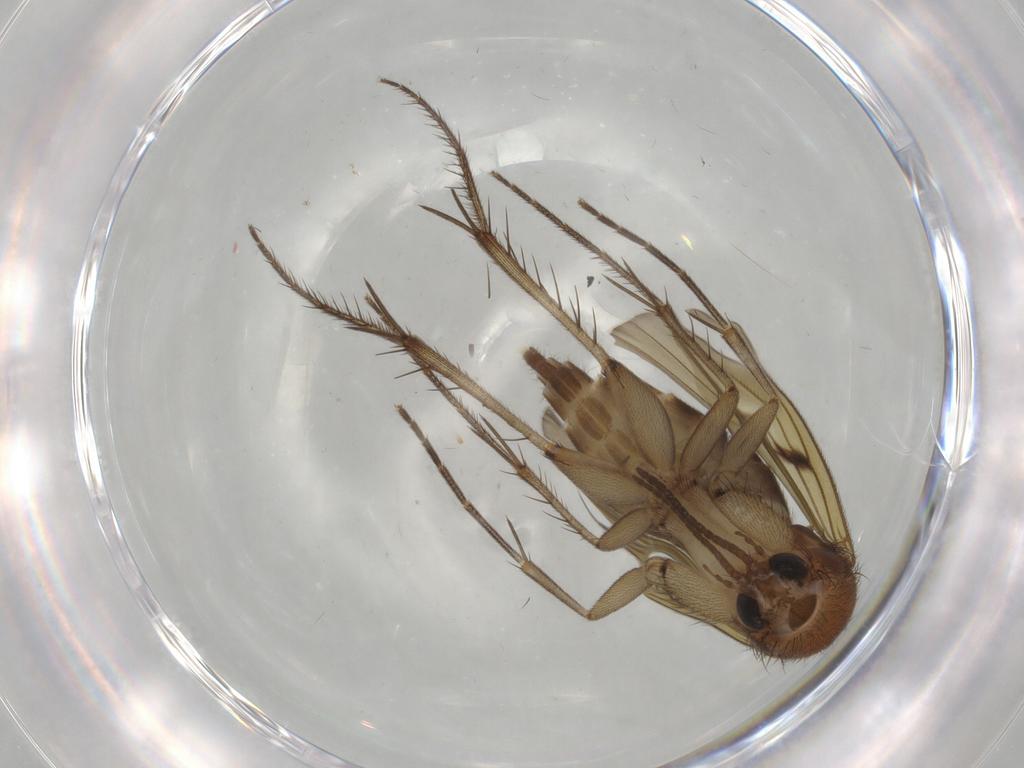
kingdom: Animalia
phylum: Arthropoda
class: Insecta
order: Diptera
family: Mycetophilidae
